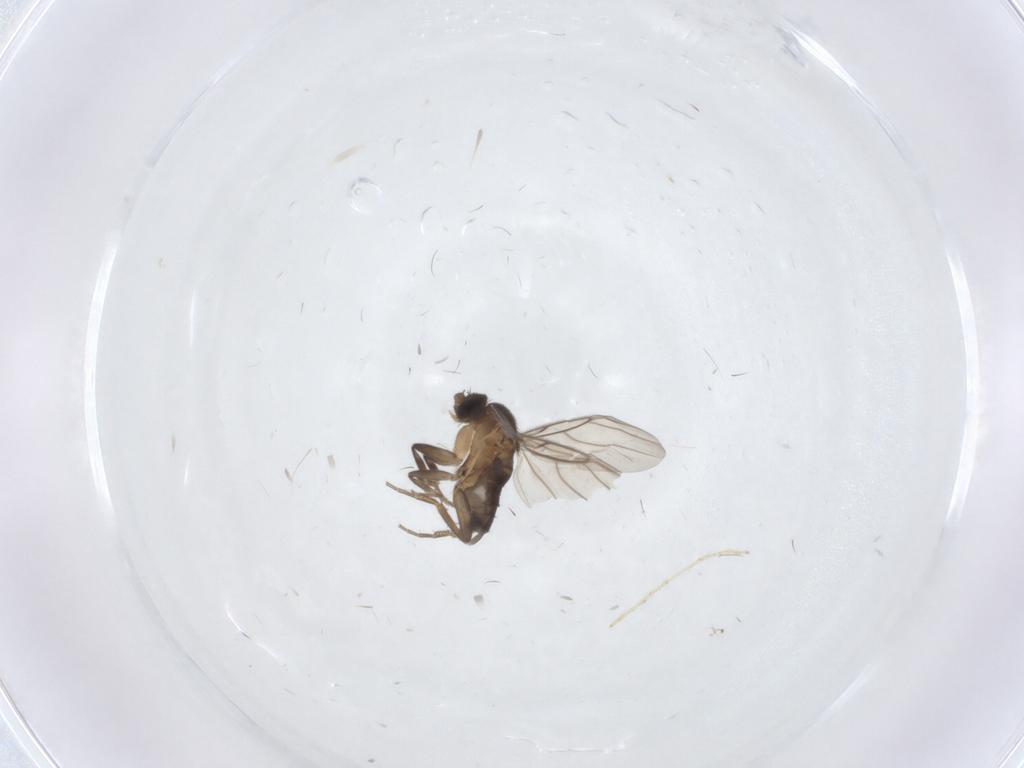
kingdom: Animalia
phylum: Arthropoda
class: Insecta
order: Diptera
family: Phoridae
